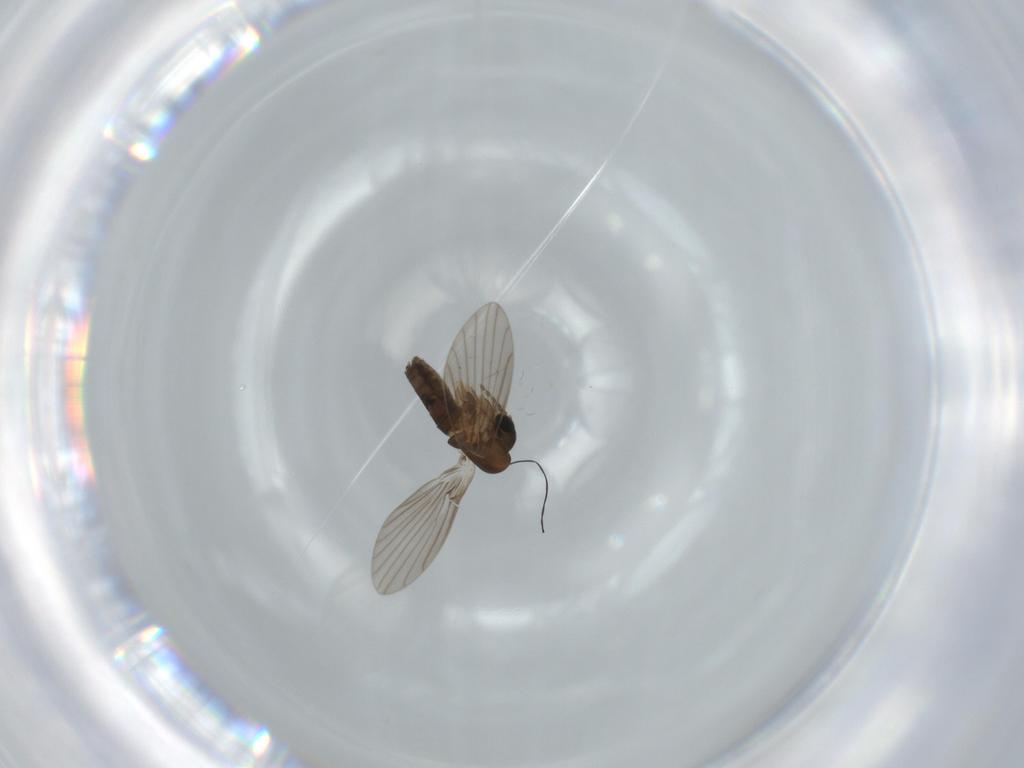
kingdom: Animalia
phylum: Arthropoda
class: Insecta
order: Diptera
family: Cecidomyiidae
